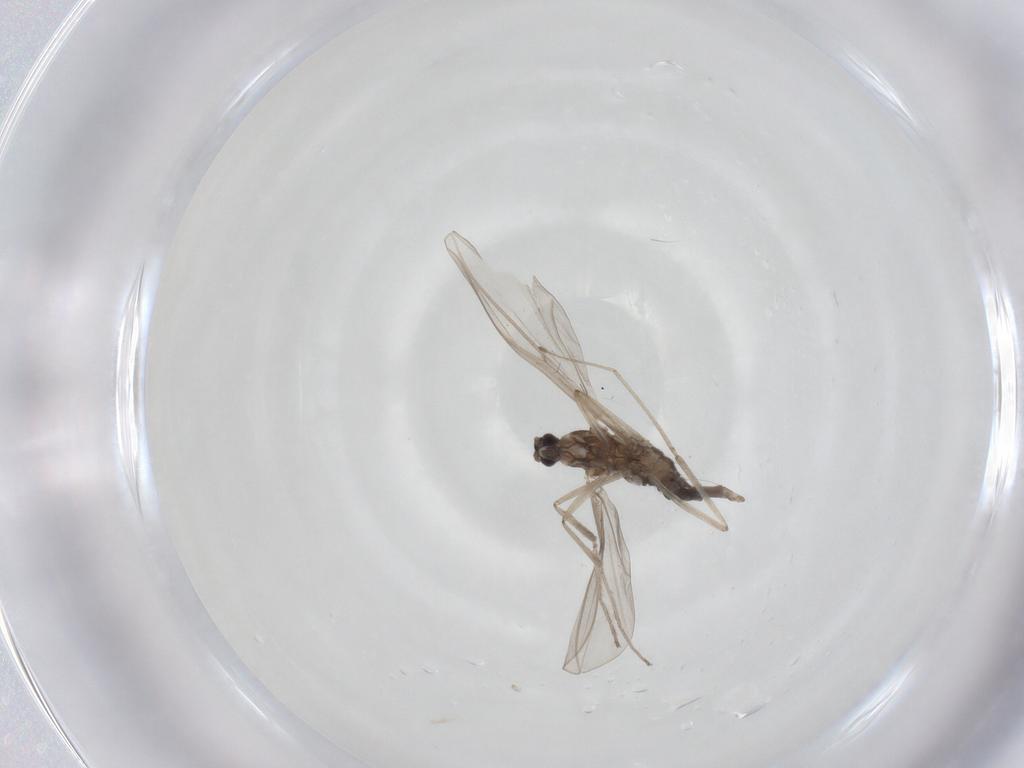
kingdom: Animalia
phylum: Arthropoda
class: Insecta
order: Diptera
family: Cecidomyiidae
